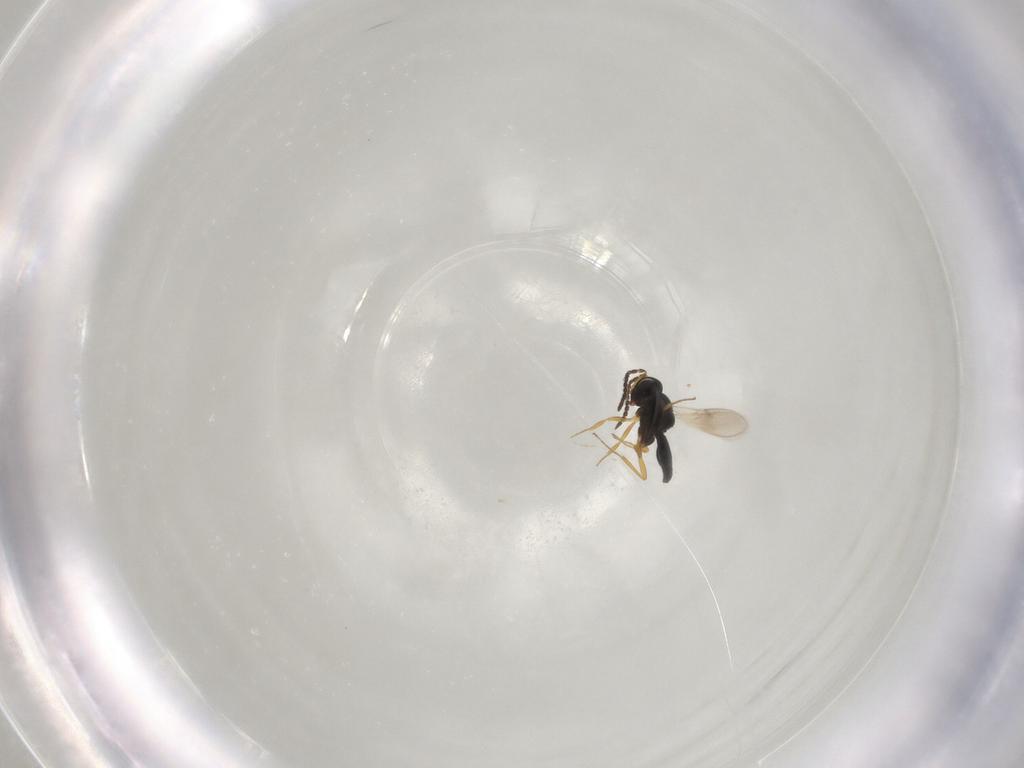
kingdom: Animalia
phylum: Arthropoda
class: Insecta
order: Hymenoptera
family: Scelionidae
